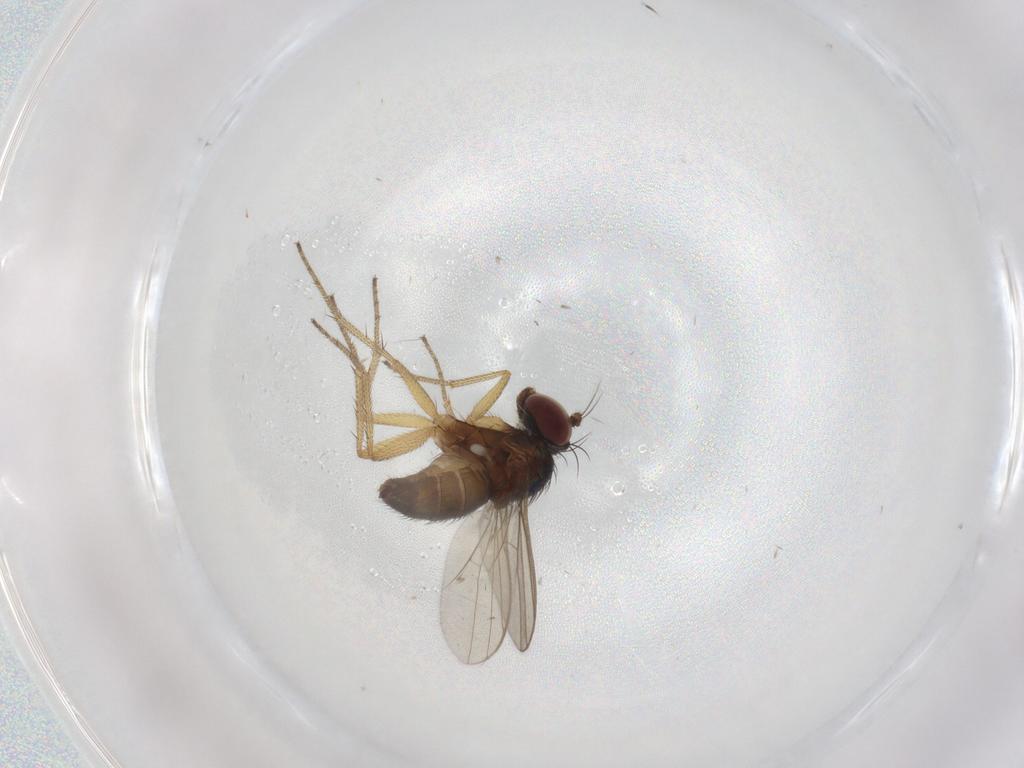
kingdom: Animalia
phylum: Arthropoda
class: Insecta
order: Diptera
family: Dolichopodidae
